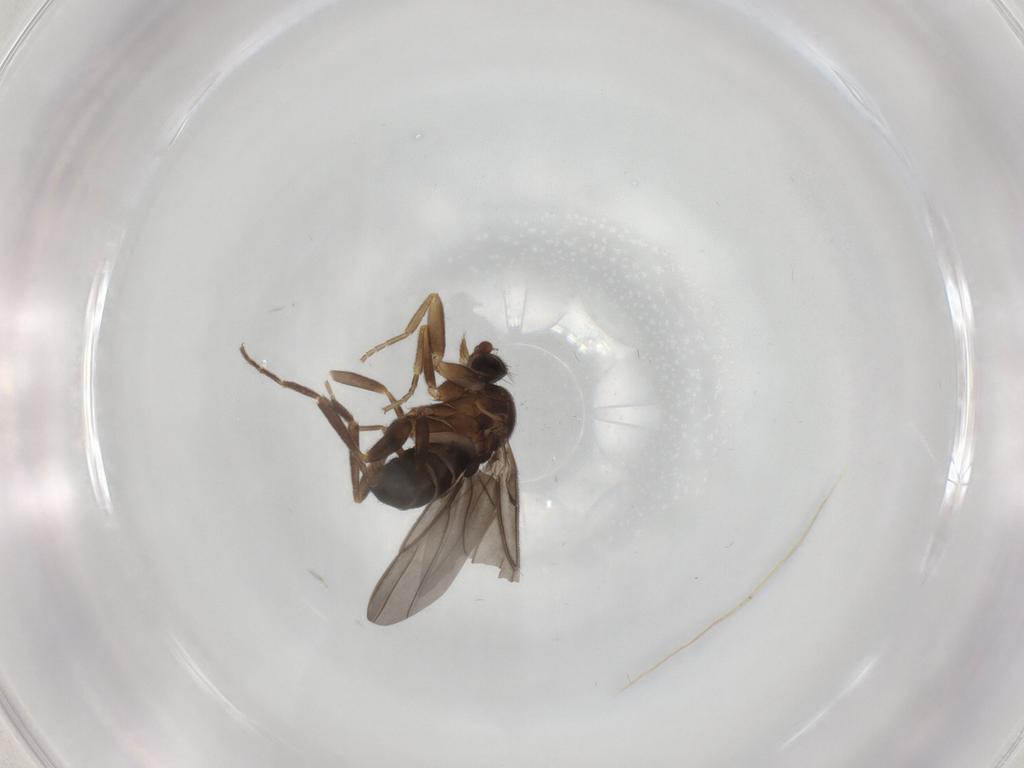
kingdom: Animalia
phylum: Arthropoda
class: Insecta
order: Diptera
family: Phoridae
